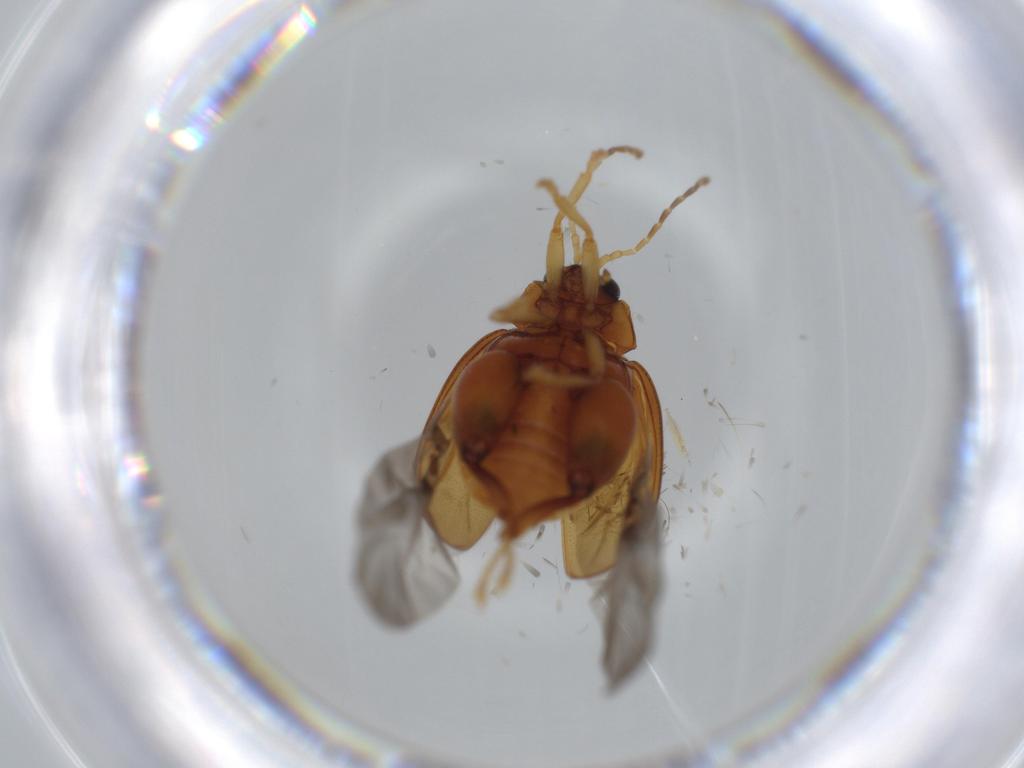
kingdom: Animalia
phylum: Arthropoda
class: Insecta
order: Coleoptera
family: Chrysomelidae
